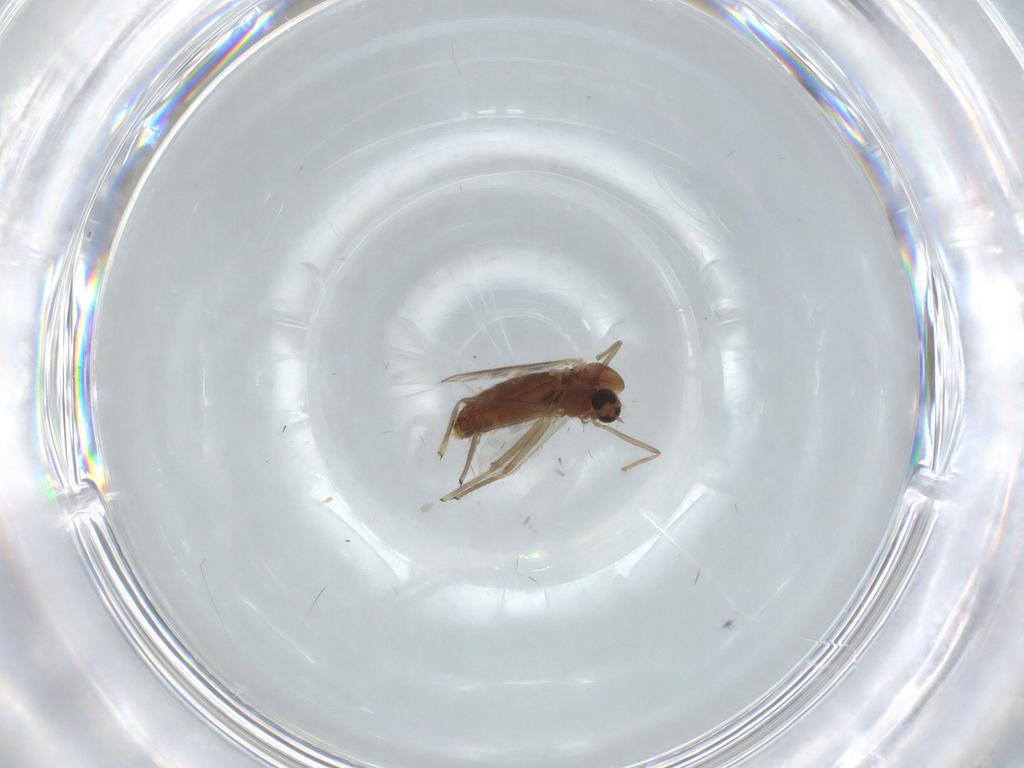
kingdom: Animalia
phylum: Arthropoda
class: Insecta
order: Diptera
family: Chironomidae
